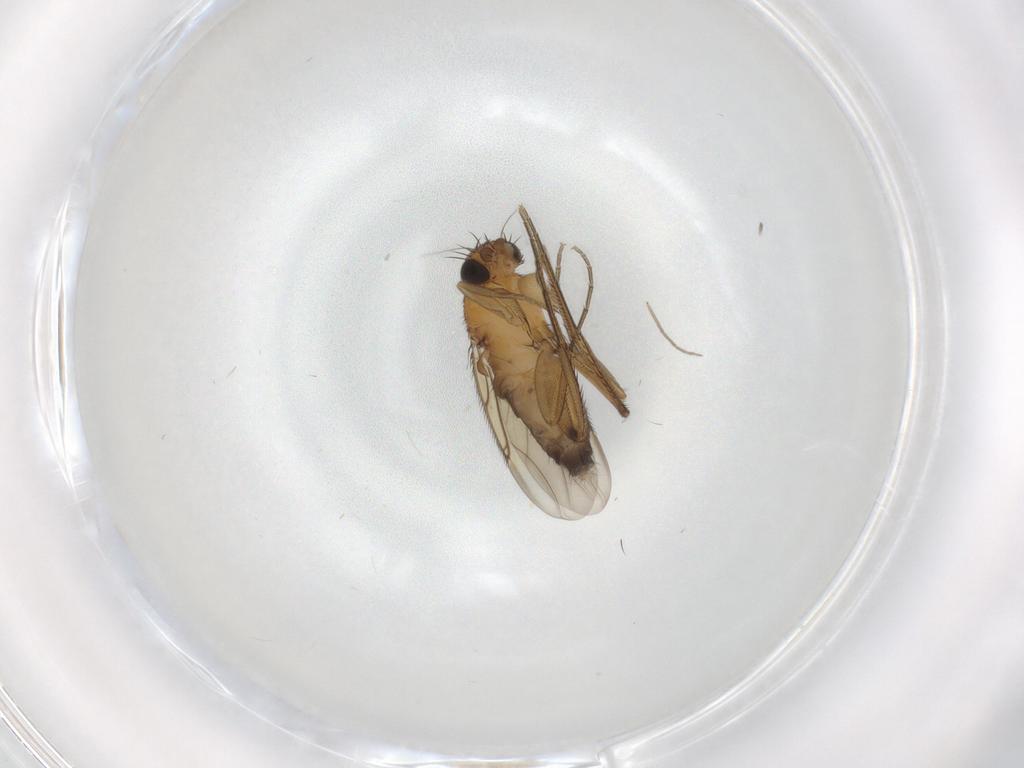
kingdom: Animalia
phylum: Arthropoda
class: Insecta
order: Diptera
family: Phoridae
